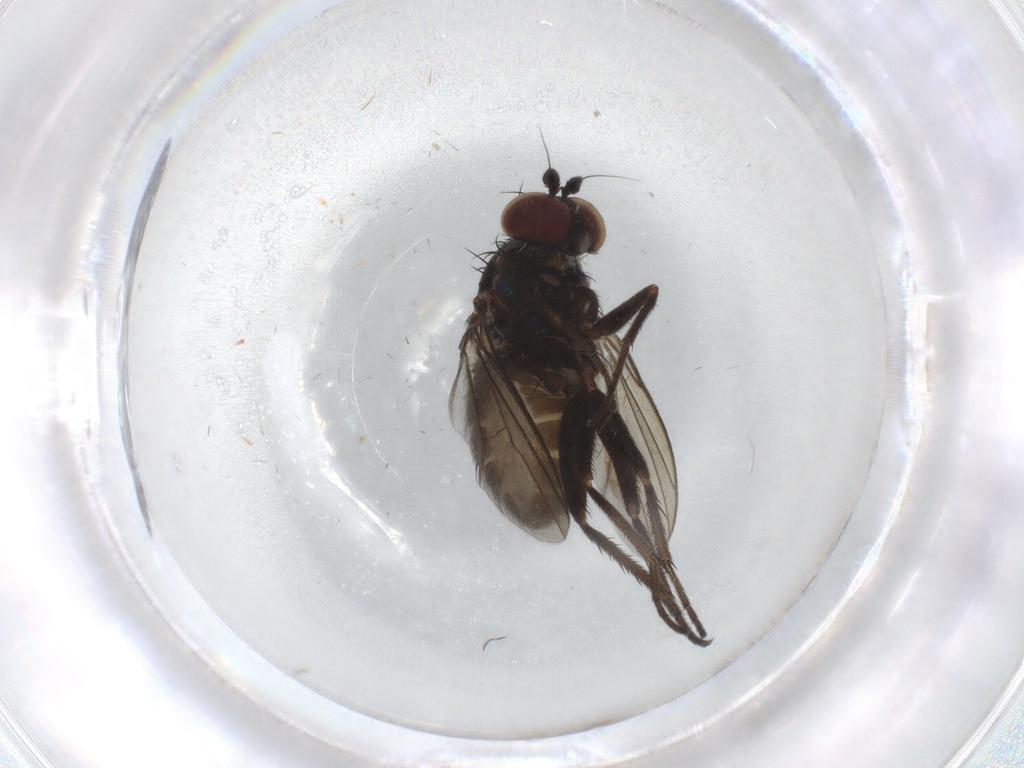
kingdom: Animalia
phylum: Arthropoda
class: Insecta
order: Diptera
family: Dolichopodidae
